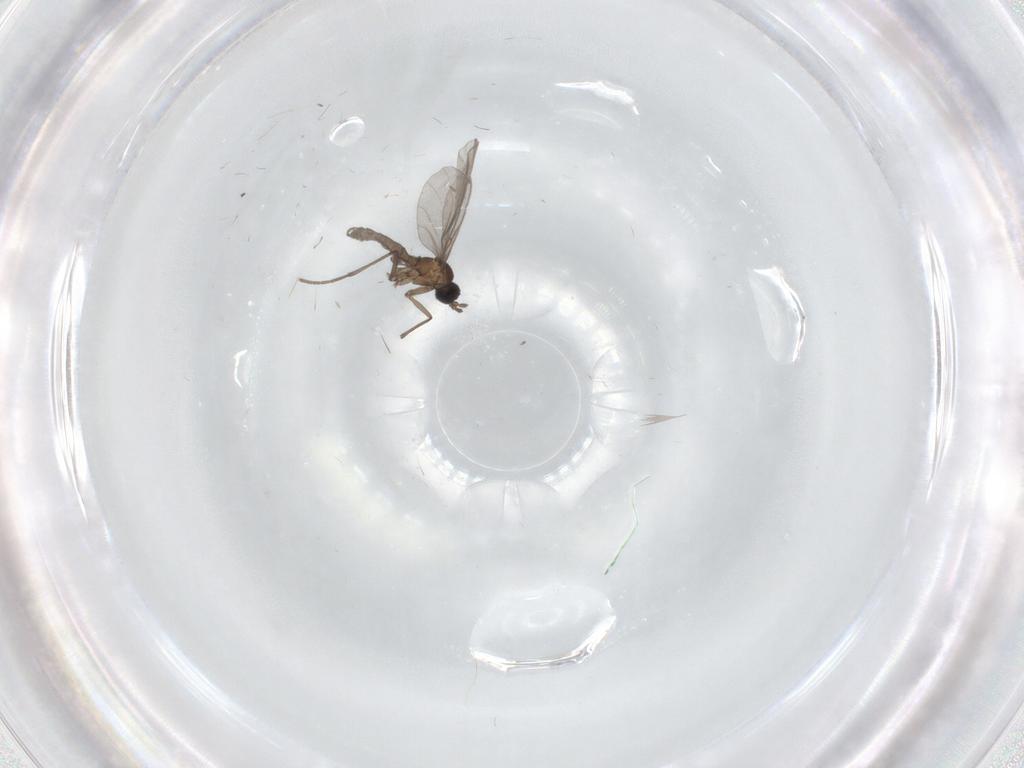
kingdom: Animalia
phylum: Arthropoda
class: Insecta
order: Diptera
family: Sciaridae
